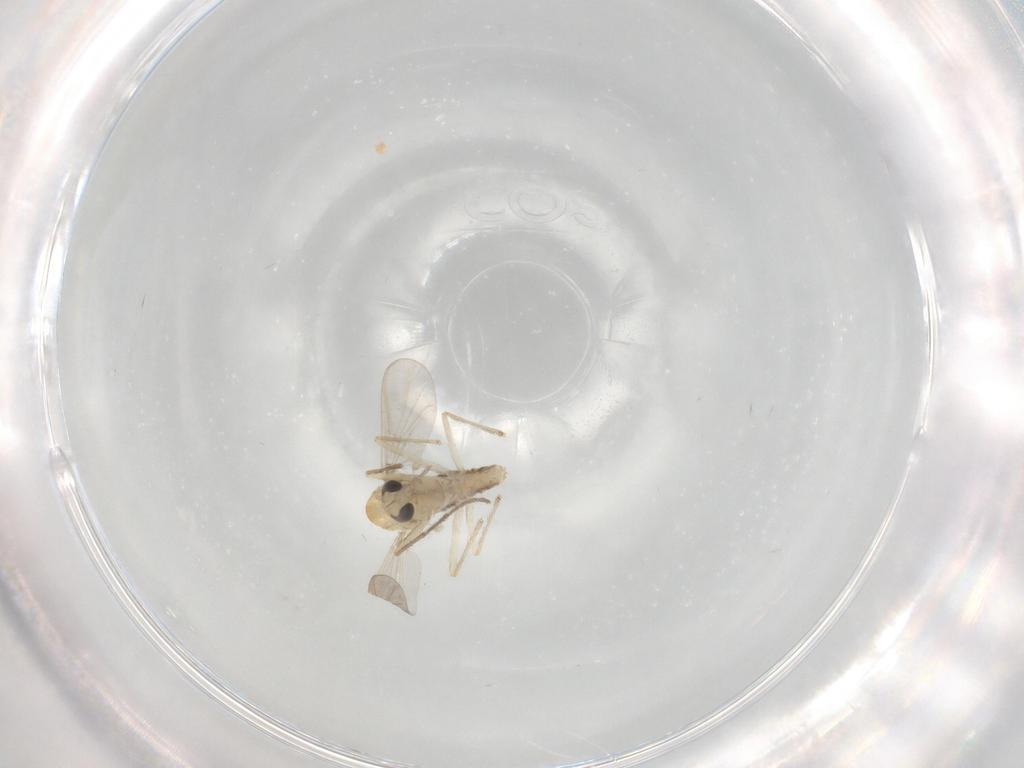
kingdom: Animalia
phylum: Arthropoda
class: Insecta
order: Diptera
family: Chironomidae
